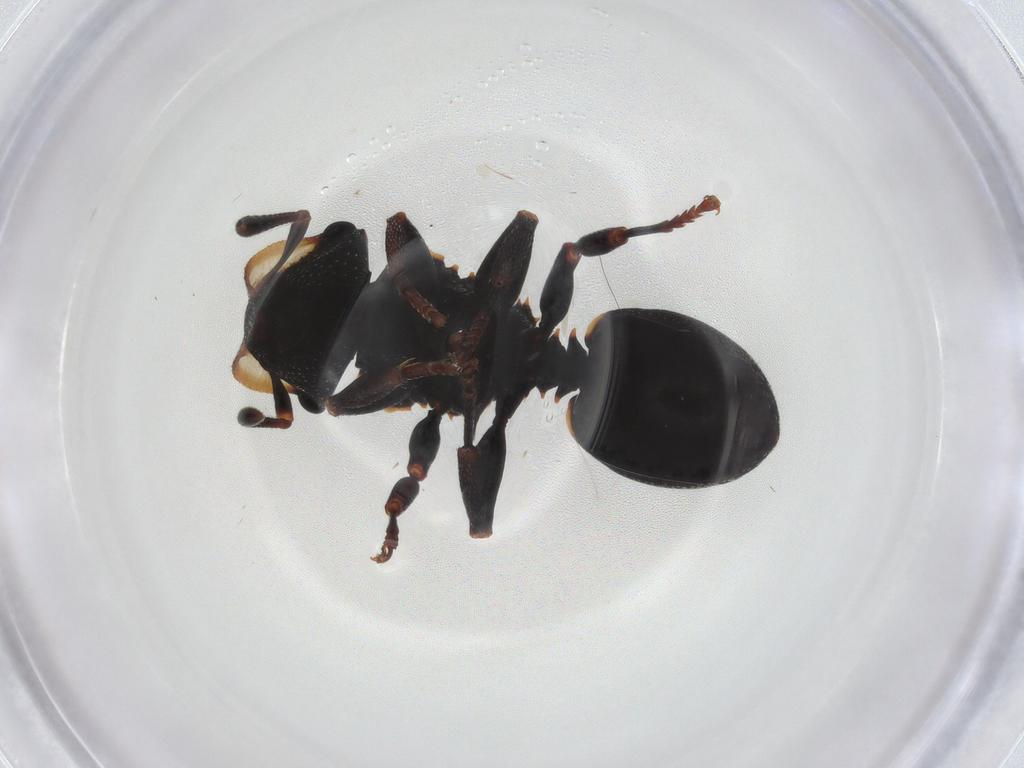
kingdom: Animalia
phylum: Arthropoda
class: Insecta
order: Hymenoptera
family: Formicidae
